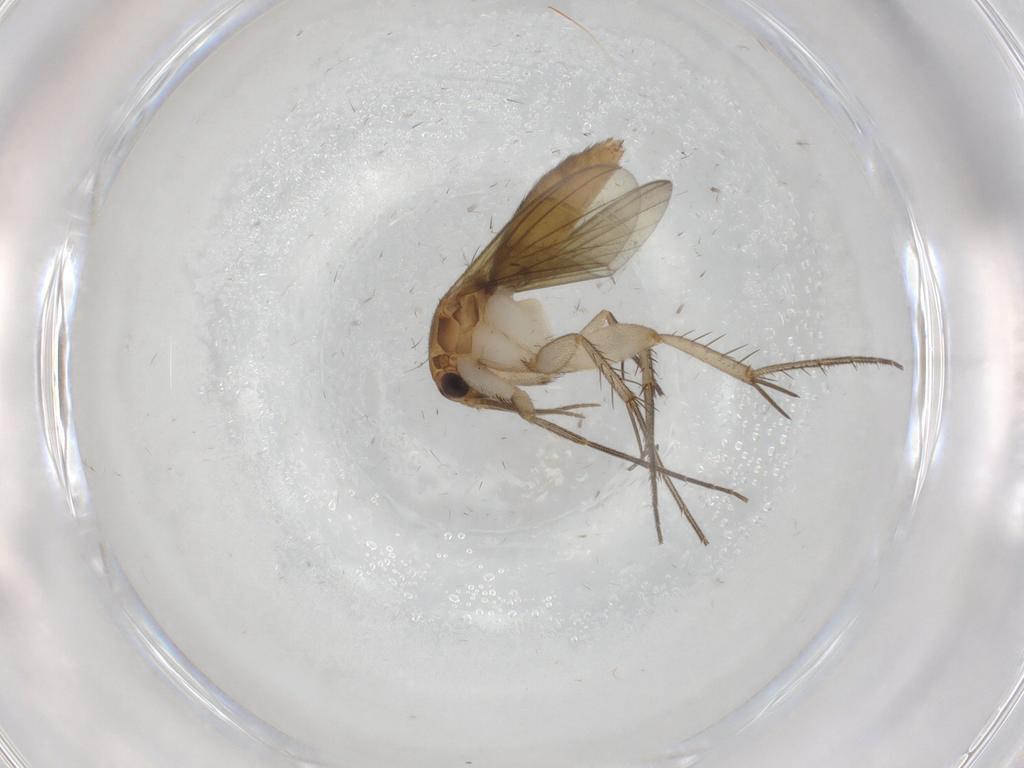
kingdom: Animalia
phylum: Arthropoda
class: Insecta
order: Diptera
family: Mycetophilidae
